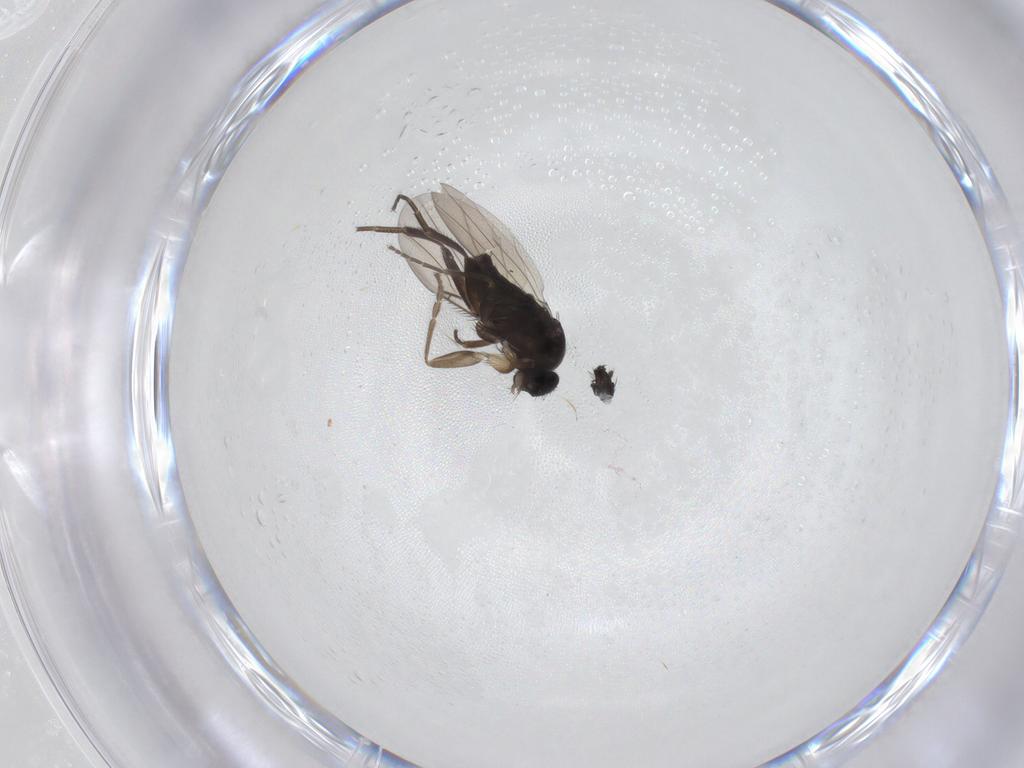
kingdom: Animalia
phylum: Arthropoda
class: Insecta
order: Diptera
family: Phoridae
